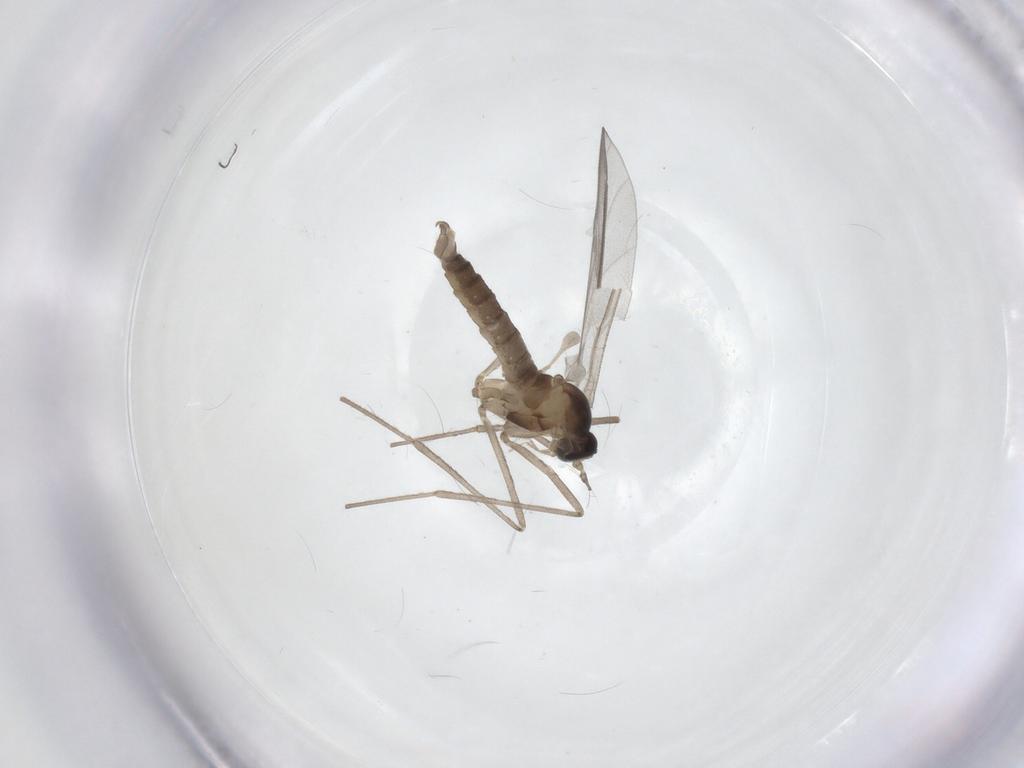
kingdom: Animalia
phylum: Arthropoda
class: Insecta
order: Diptera
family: Cecidomyiidae
